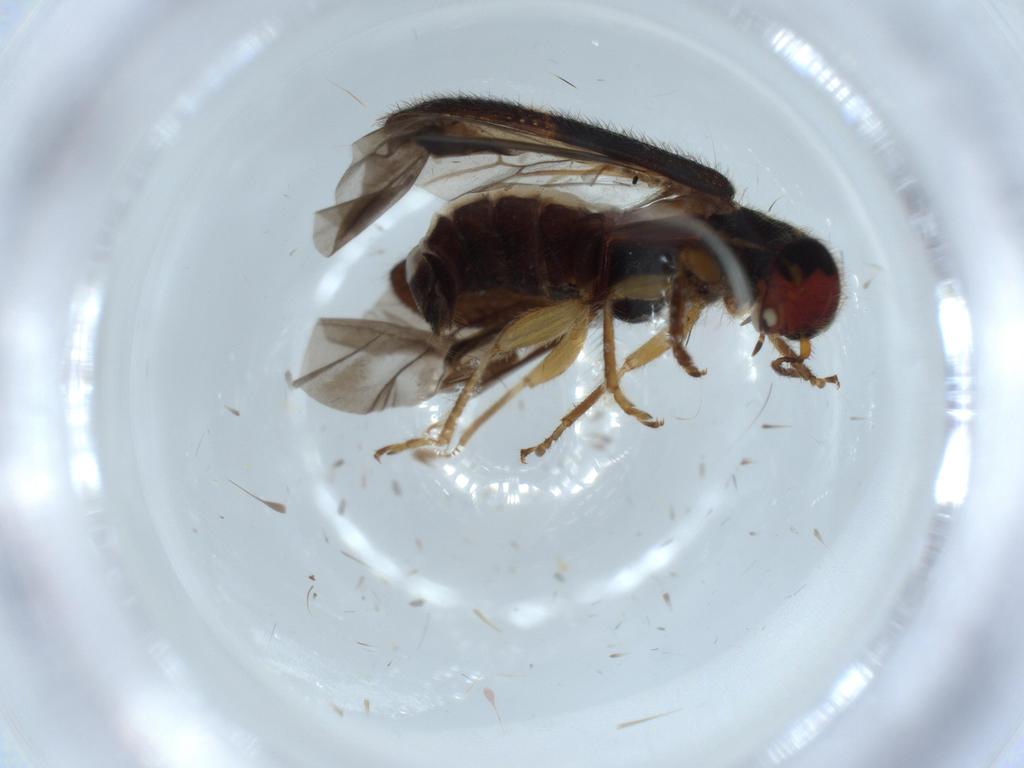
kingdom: Animalia
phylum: Arthropoda
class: Insecta
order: Coleoptera
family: Cleridae
